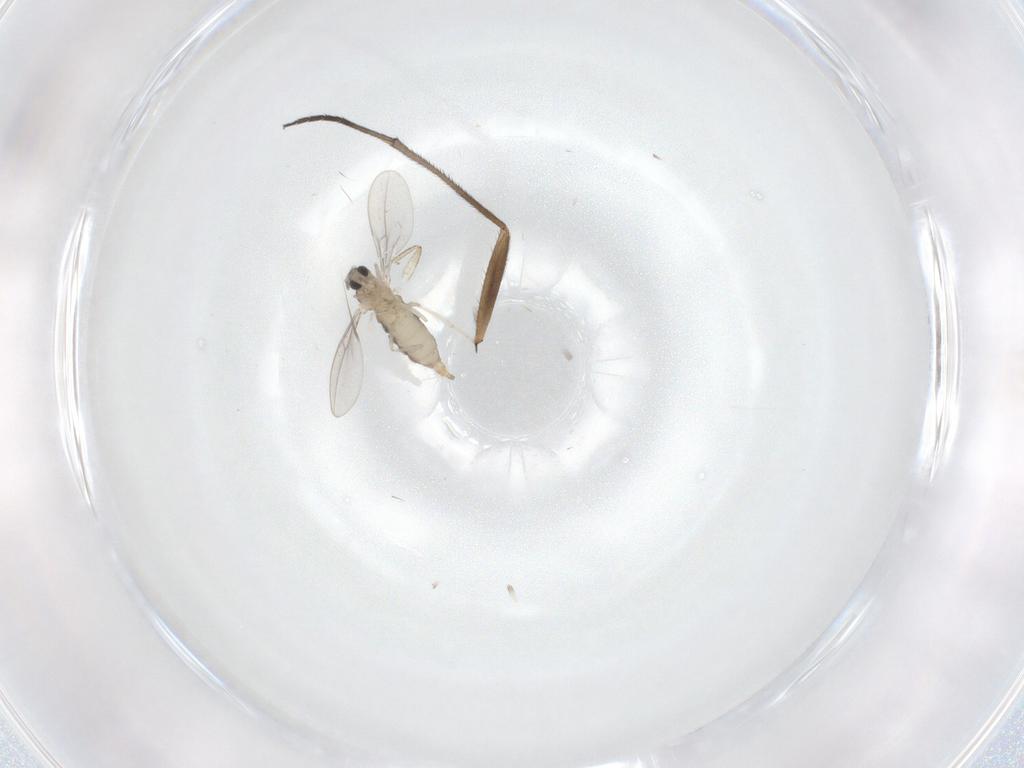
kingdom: Animalia
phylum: Arthropoda
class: Insecta
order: Diptera
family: Cecidomyiidae
